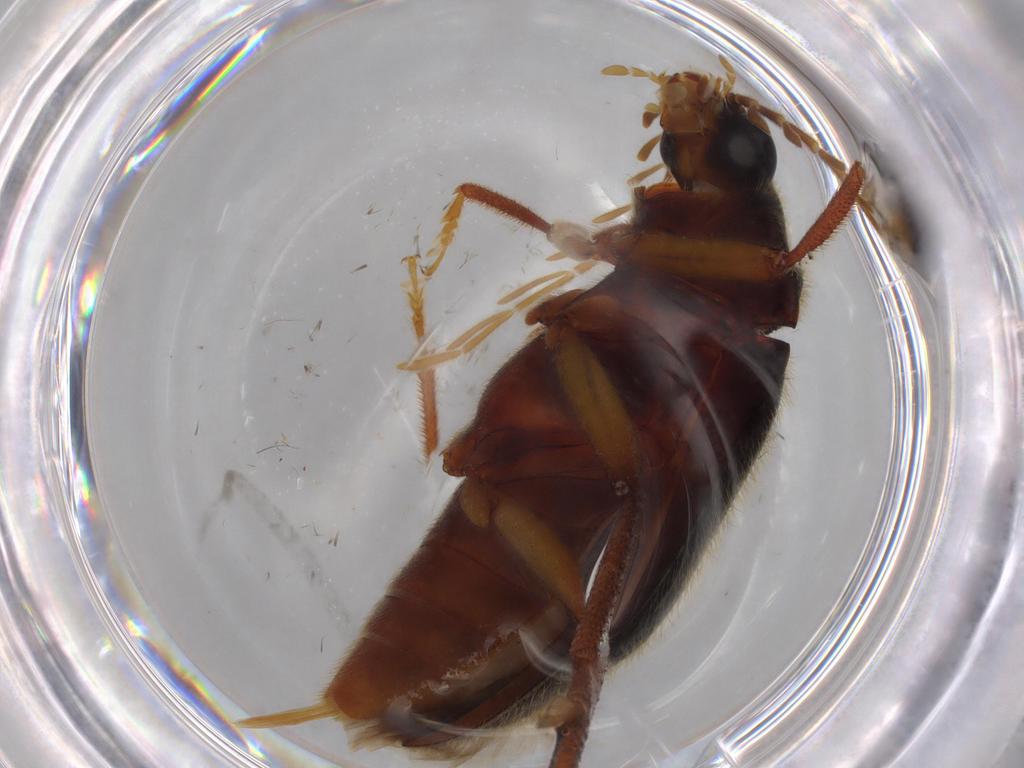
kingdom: Animalia
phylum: Arthropoda
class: Insecta
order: Coleoptera
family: Ptilodactylidae
